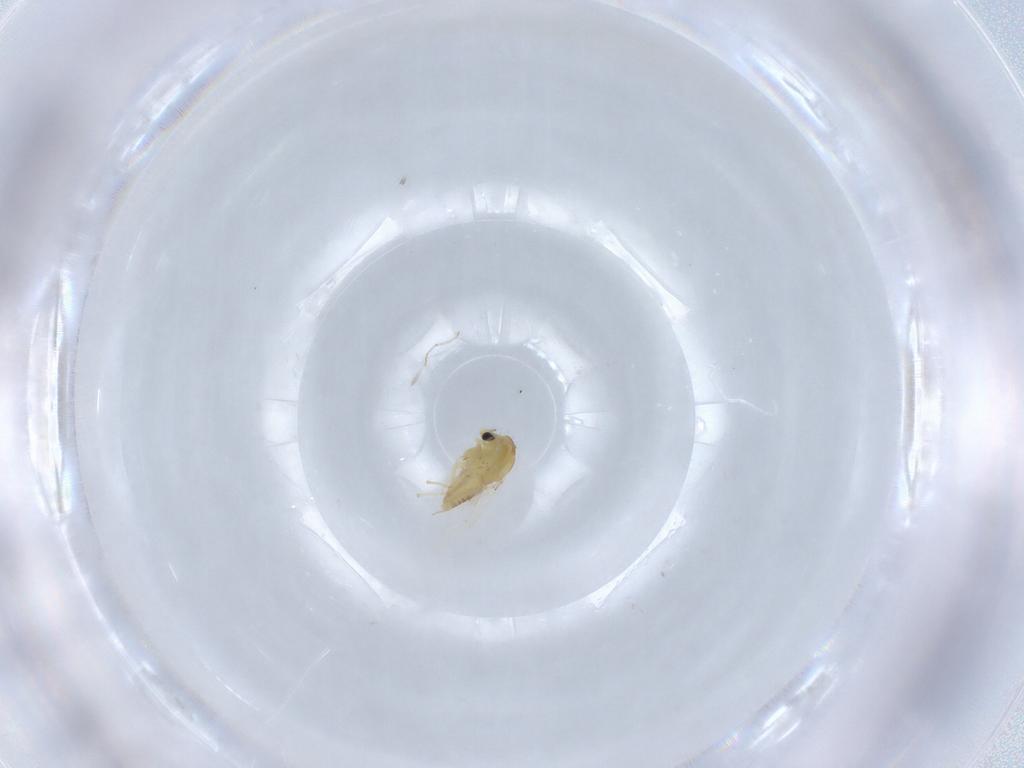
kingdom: Animalia
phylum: Arthropoda
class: Insecta
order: Diptera
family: Chironomidae
